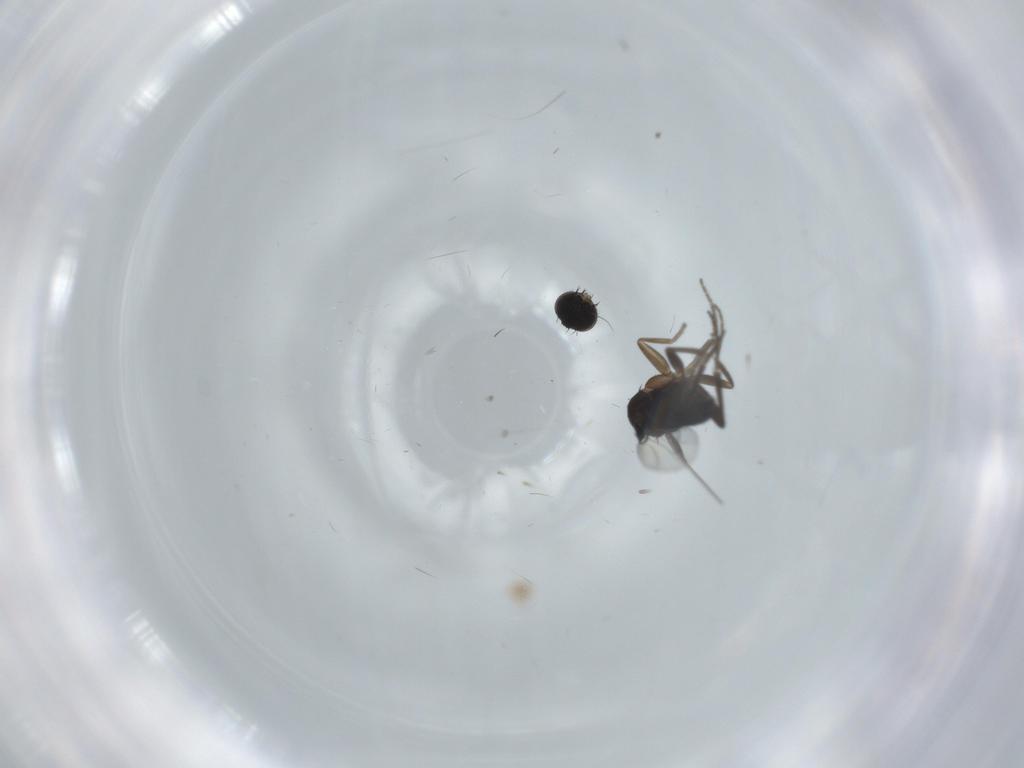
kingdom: Animalia
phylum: Arthropoda
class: Insecta
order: Diptera
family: Phoridae
